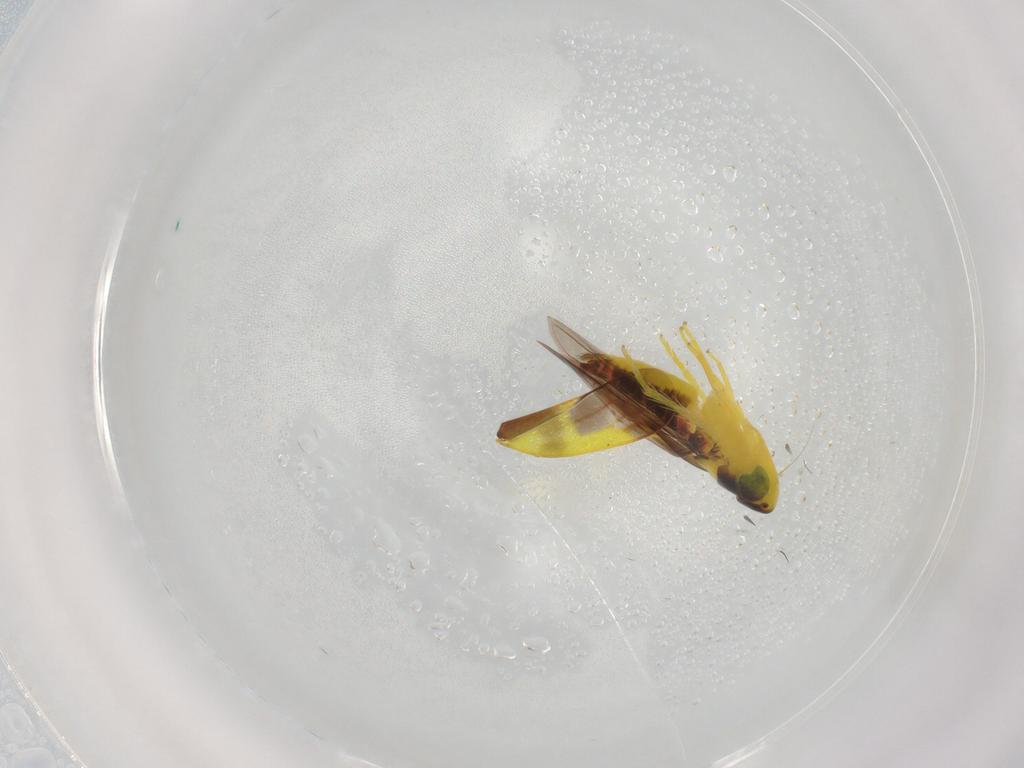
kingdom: Animalia
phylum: Arthropoda
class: Insecta
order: Hemiptera
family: Cicadellidae
